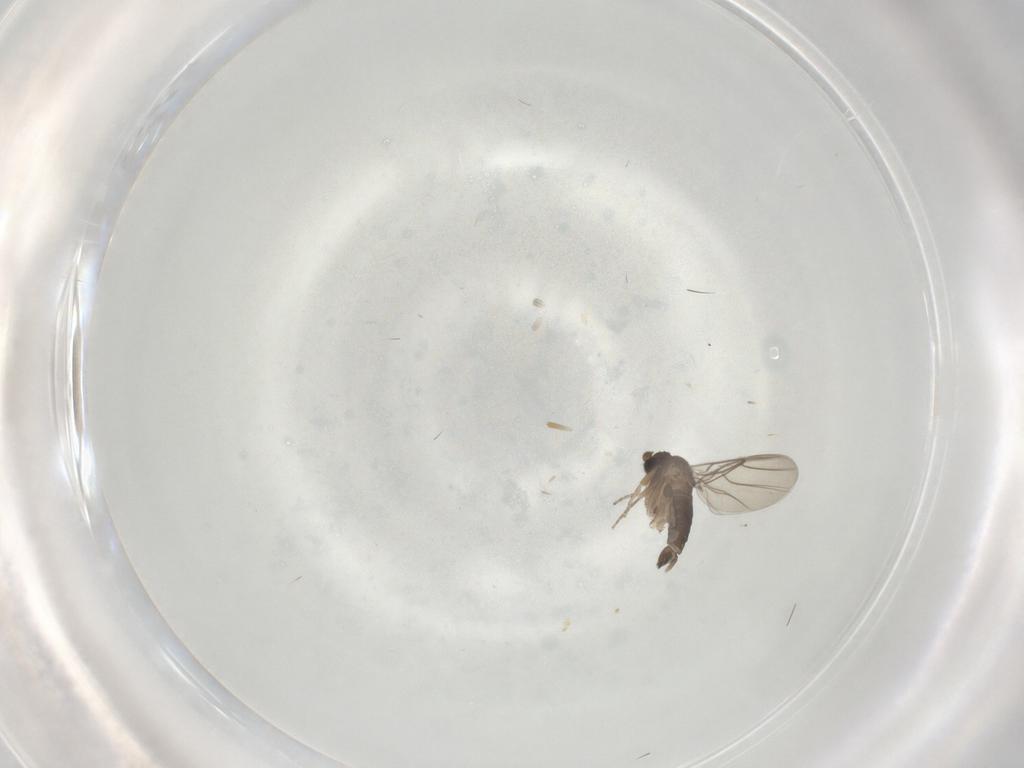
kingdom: Animalia
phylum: Arthropoda
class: Insecta
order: Diptera
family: Phoridae
